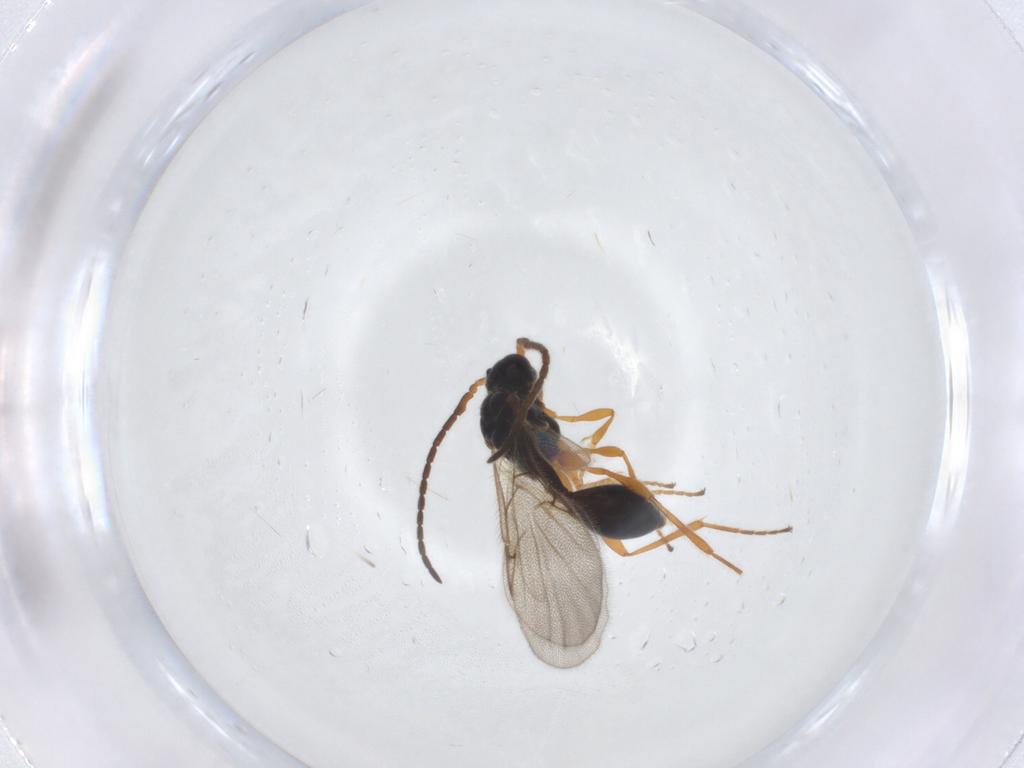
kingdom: Animalia
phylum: Arthropoda
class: Insecta
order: Hymenoptera
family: Diapriidae
